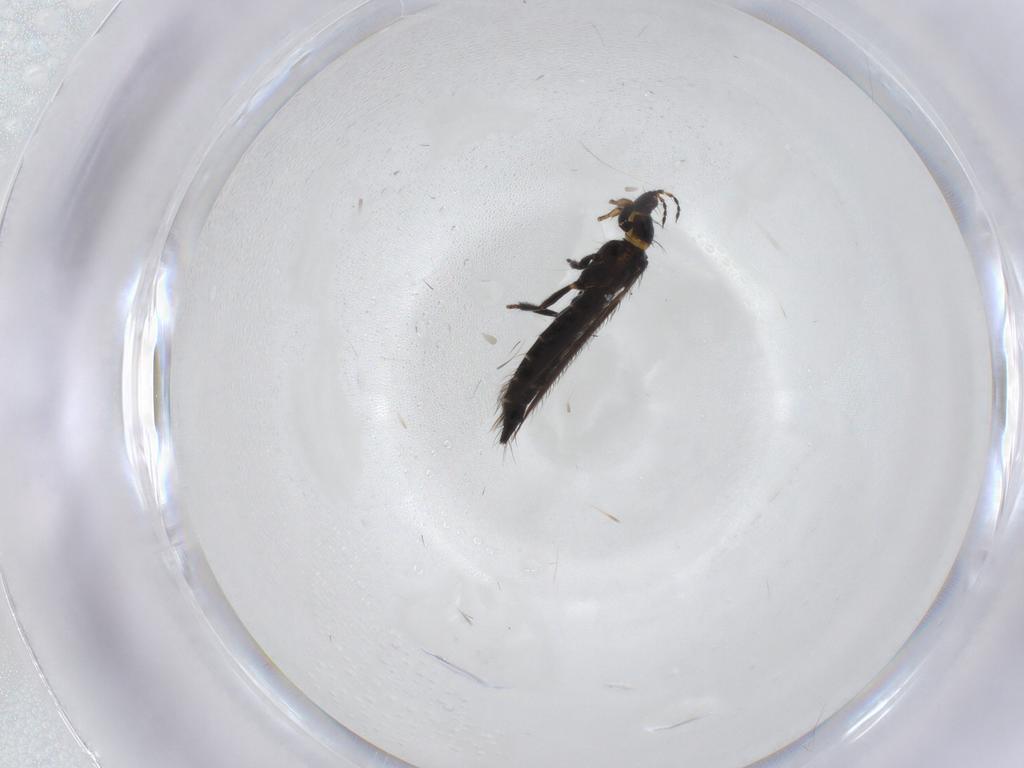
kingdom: Animalia
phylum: Arthropoda
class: Insecta
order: Thysanoptera
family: Thripidae
